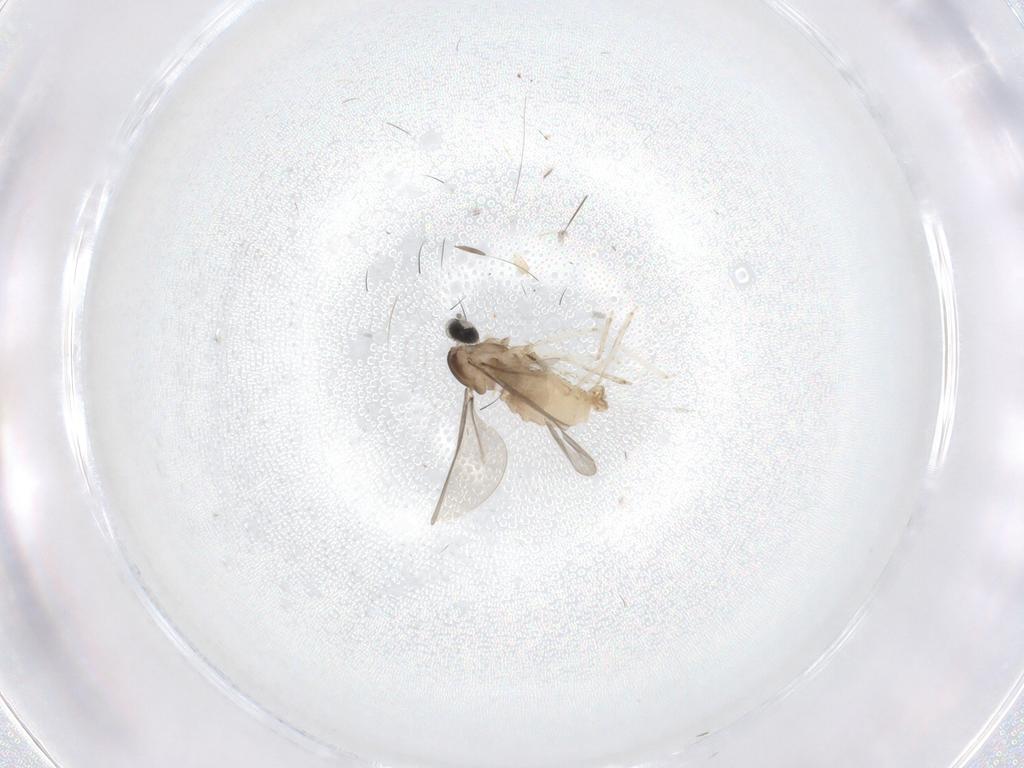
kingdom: Animalia
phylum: Arthropoda
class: Insecta
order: Diptera
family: Cecidomyiidae
